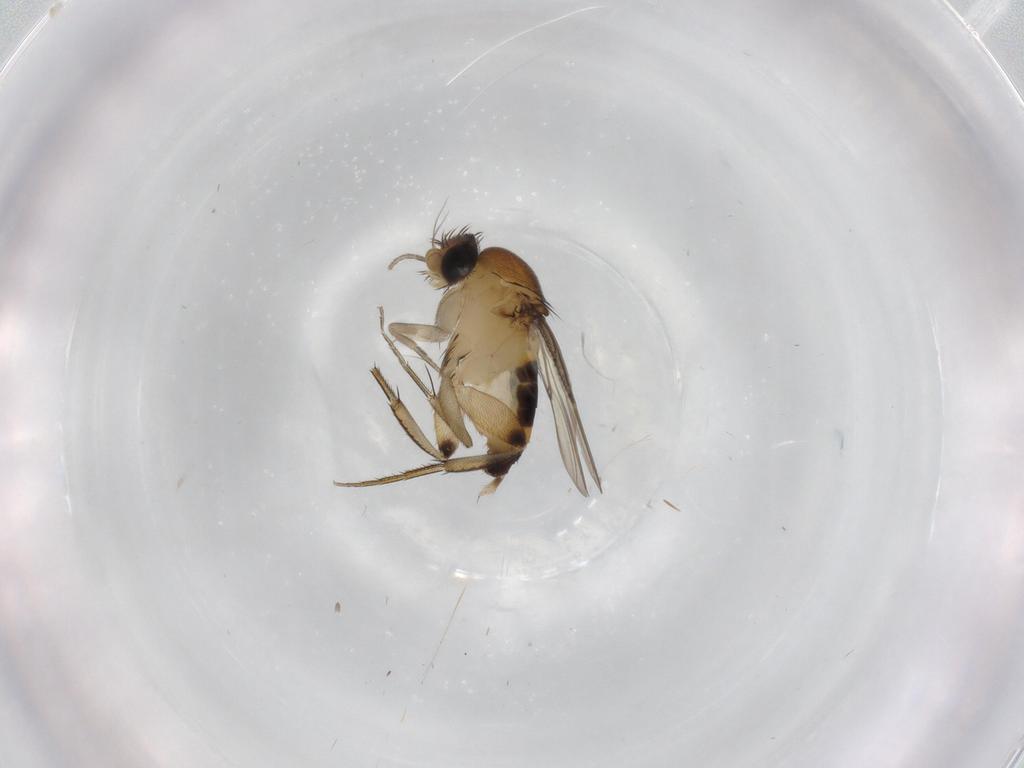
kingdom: Animalia
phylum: Arthropoda
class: Insecta
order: Diptera
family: Phoridae
